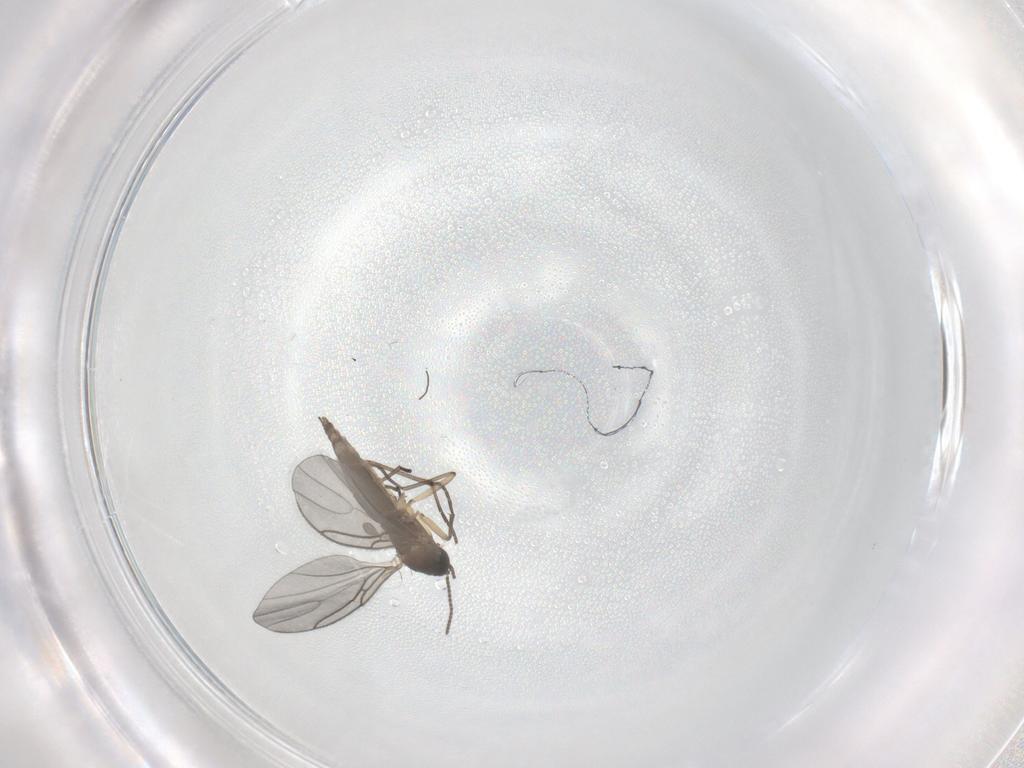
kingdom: Animalia
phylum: Arthropoda
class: Insecta
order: Diptera
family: Sciaridae
